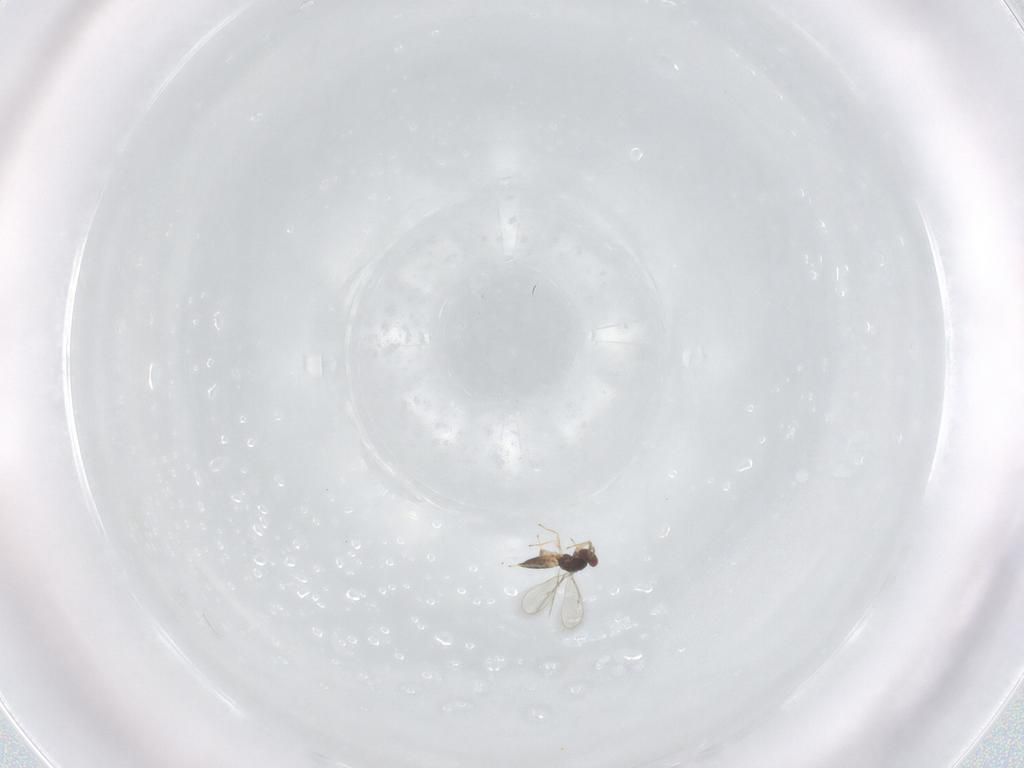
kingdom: Animalia
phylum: Arthropoda
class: Insecta
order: Hymenoptera
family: Eulophidae
